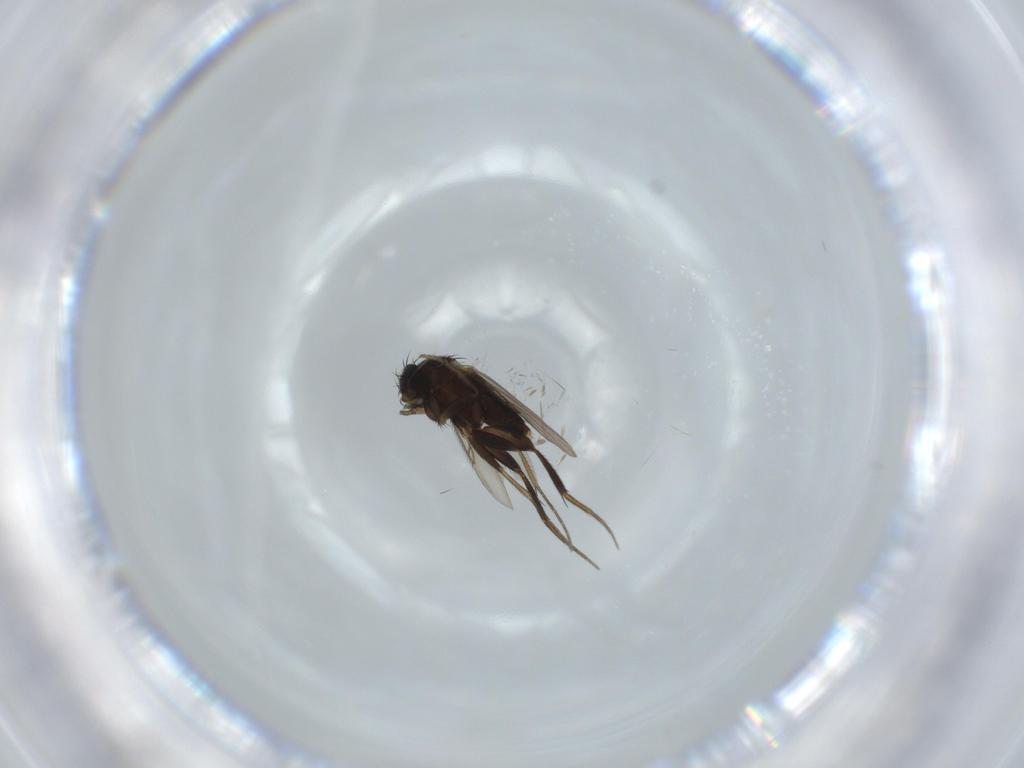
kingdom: Animalia
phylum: Arthropoda
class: Insecta
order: Diptera
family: Phoridae
